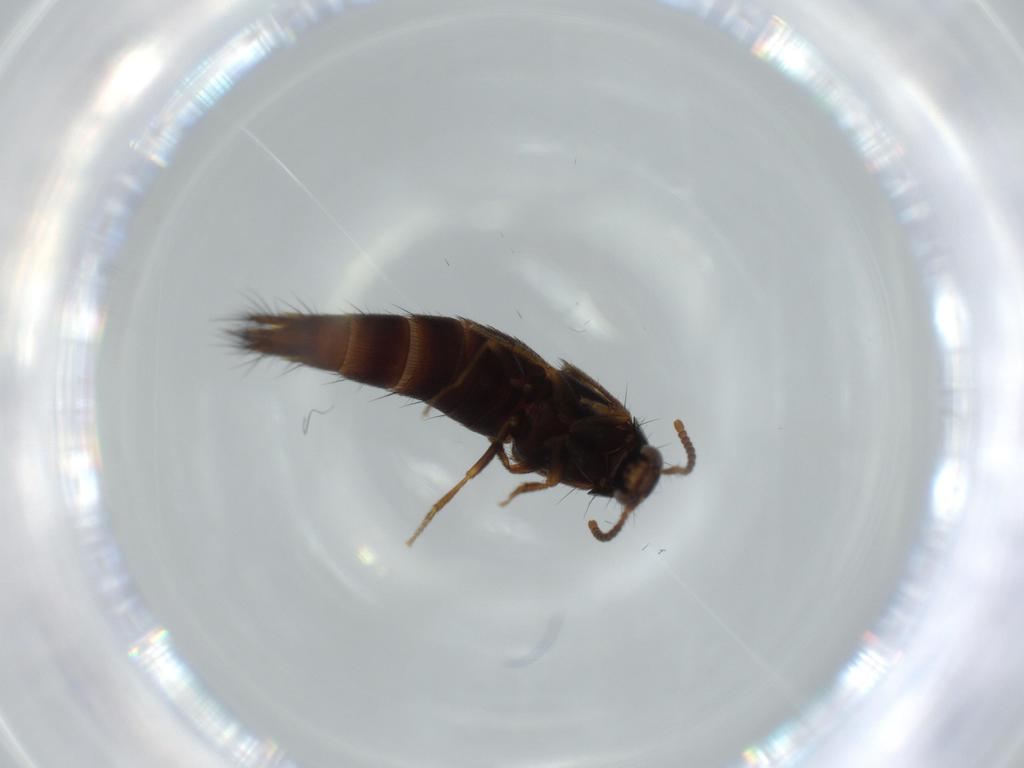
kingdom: Animalia
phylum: Arthropoda
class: Insecta
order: Coleoptera
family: Staphylinidae
